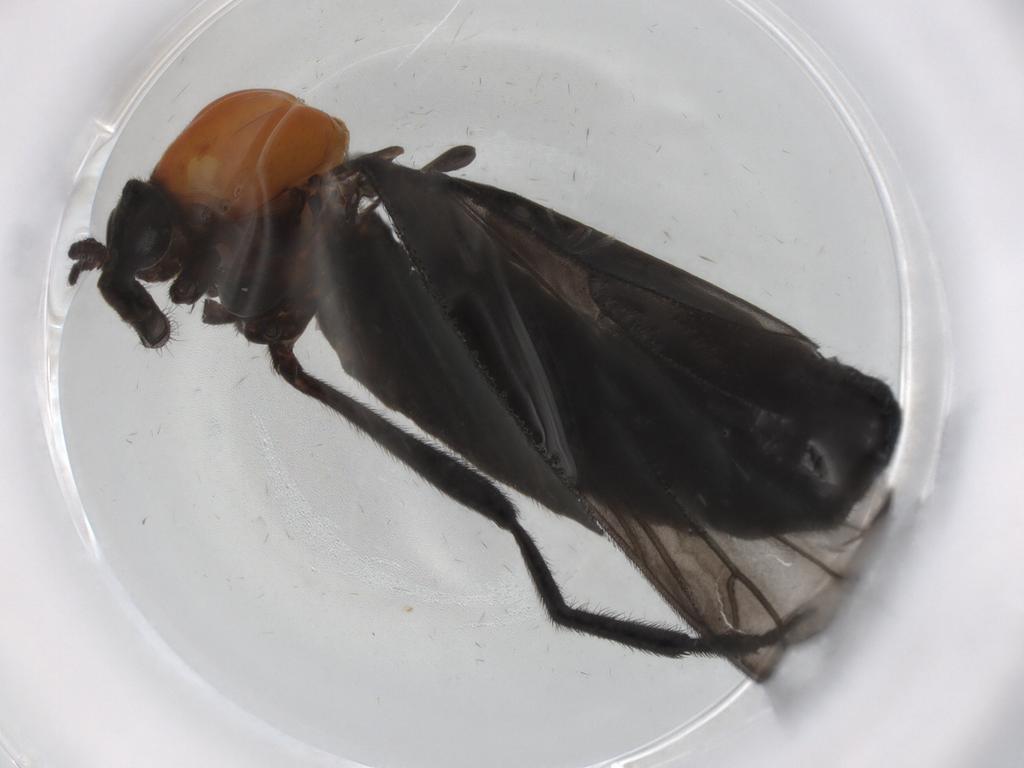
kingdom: Animalia
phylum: Arthropoda
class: Insecta
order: Diptera
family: Bibionidae
